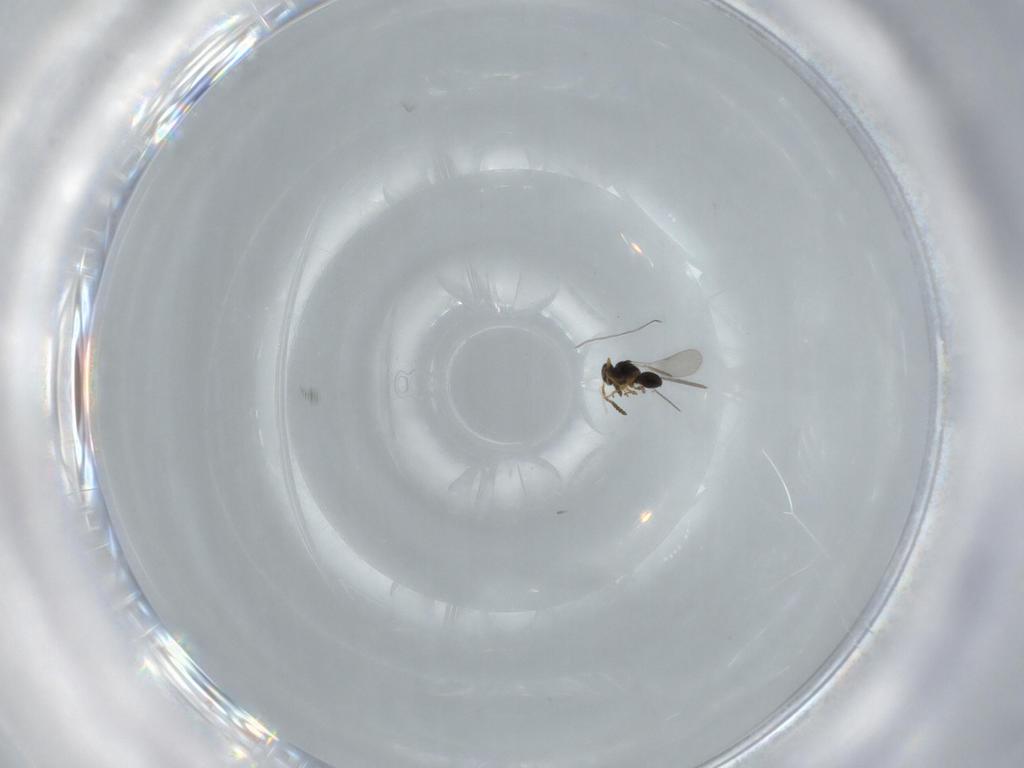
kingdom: Animalia
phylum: Arthropoda
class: Insecta
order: Hymenoptera
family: Platygastridae
